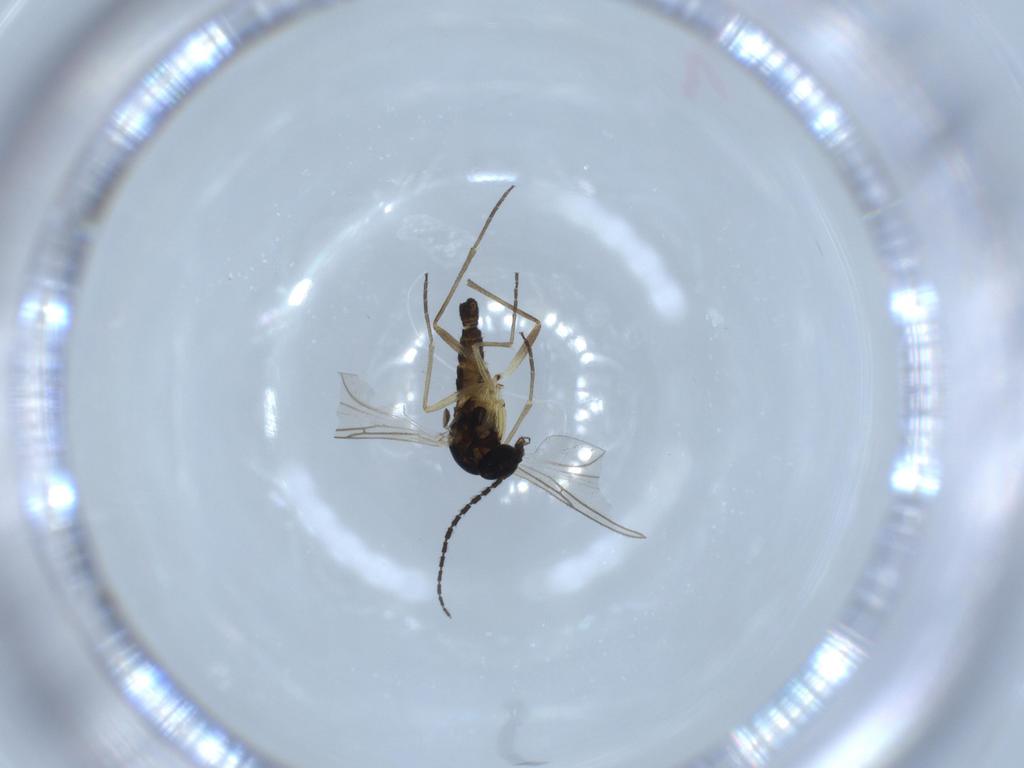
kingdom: Animalia
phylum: Arthropoda
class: Insecta
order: Diptera
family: Sciaridae
